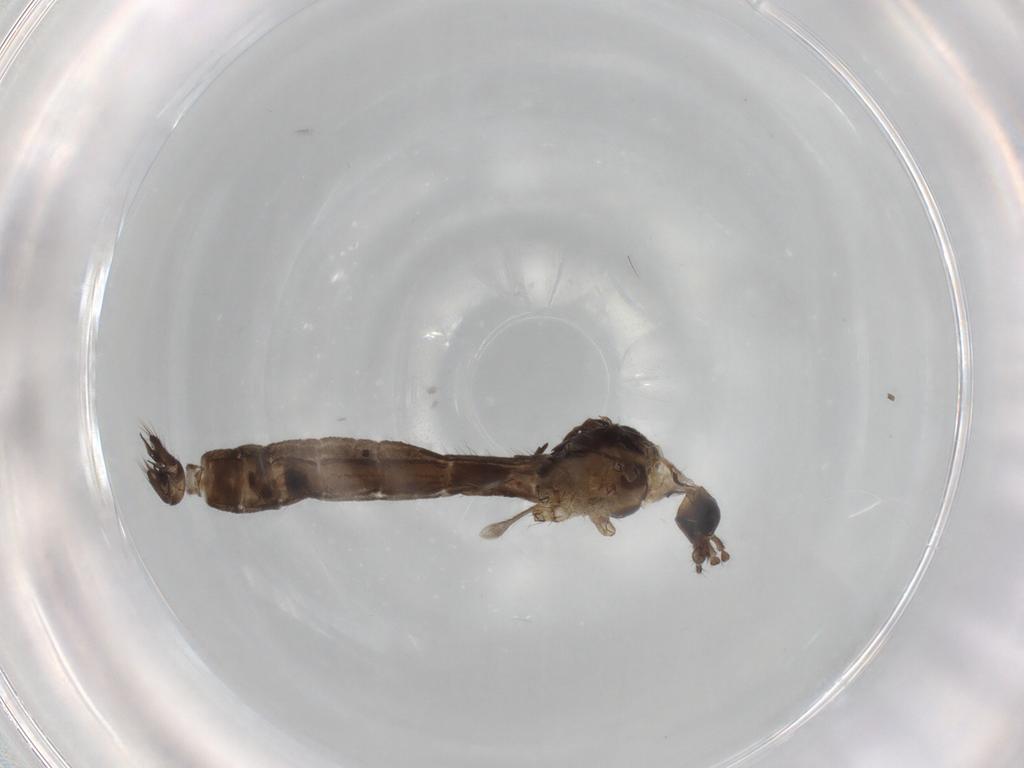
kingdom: Animalia
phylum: Arthropoda
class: Insecta
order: Diptera
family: Limoniidae
